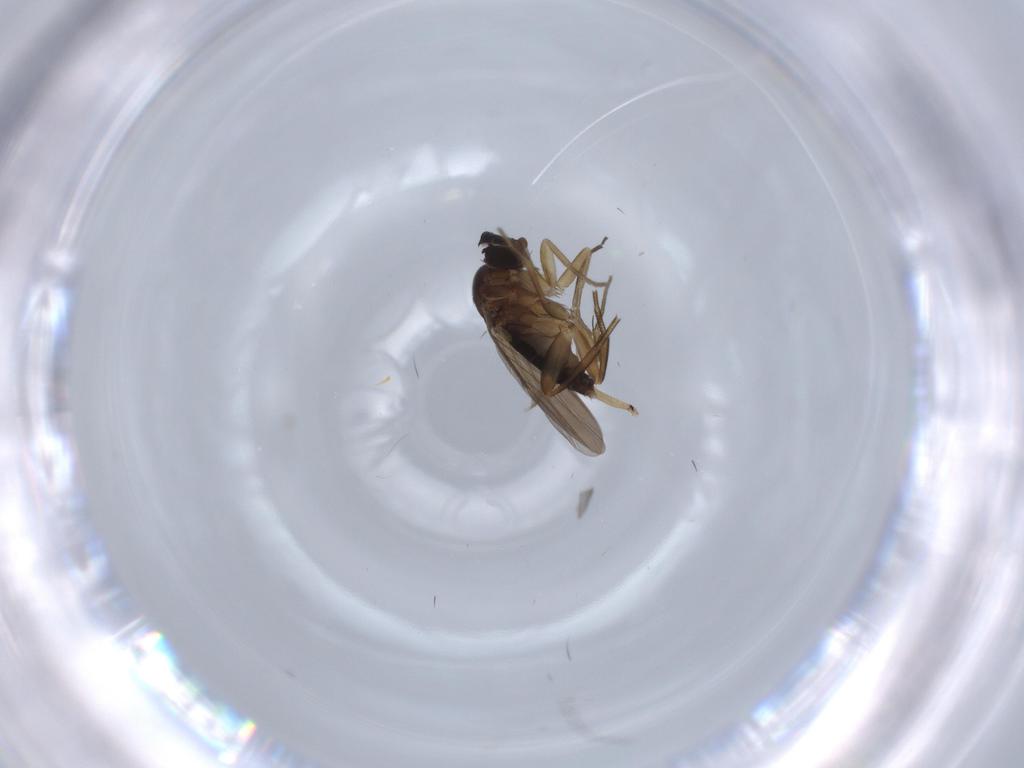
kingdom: Animalia
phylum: Arthropoda
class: Insecta
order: Diptera
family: Phoridae
